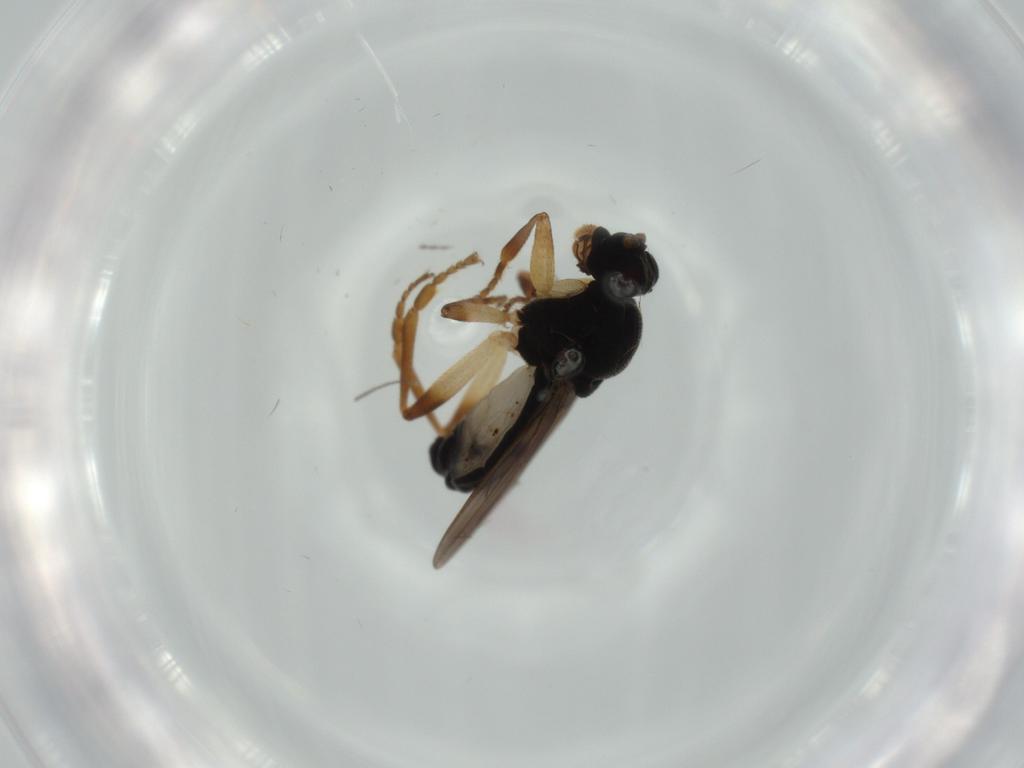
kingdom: Animalia
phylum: Arthropoda
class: Insecta
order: Diptera
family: Sphaeroceridae
